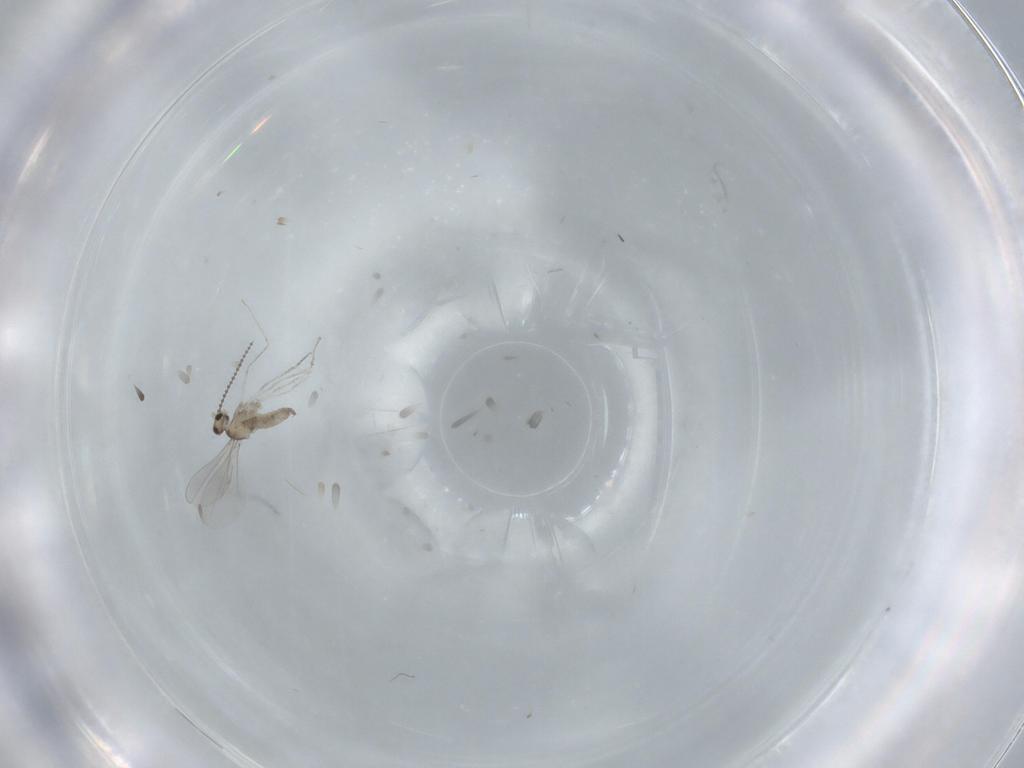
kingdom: Animalia
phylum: Arthropoda
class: Insecta
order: Diptera
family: Cecidomyiidae
